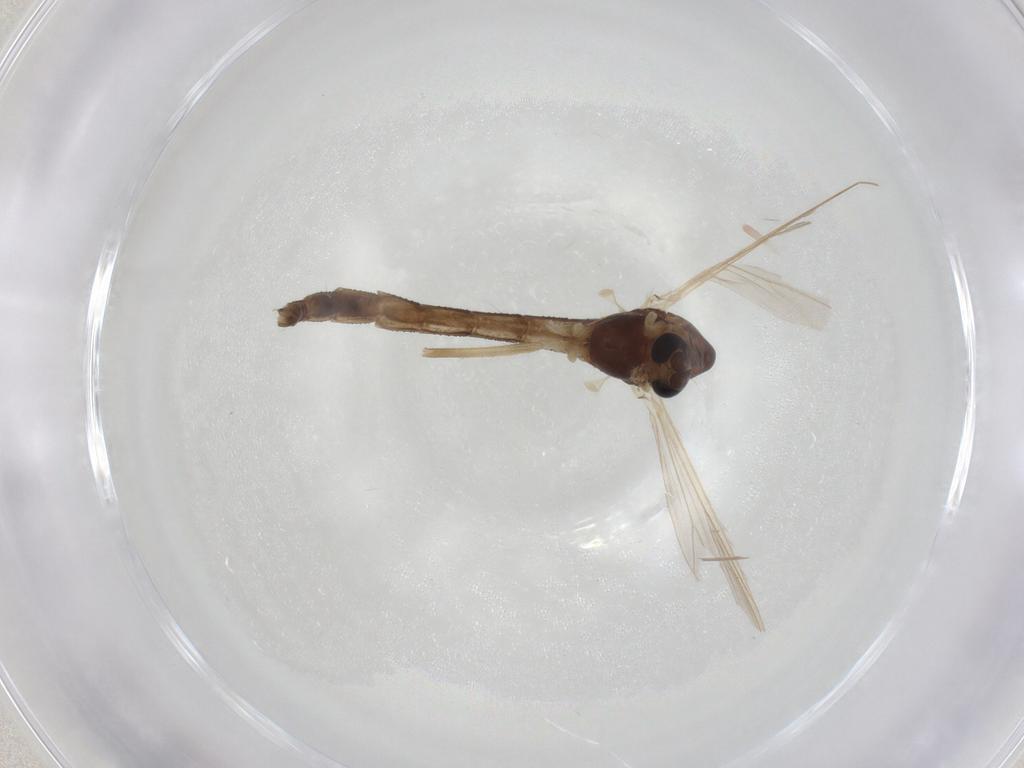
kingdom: Animalia
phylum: Arthropoda
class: Insecta
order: Diptera
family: Chironomidae
